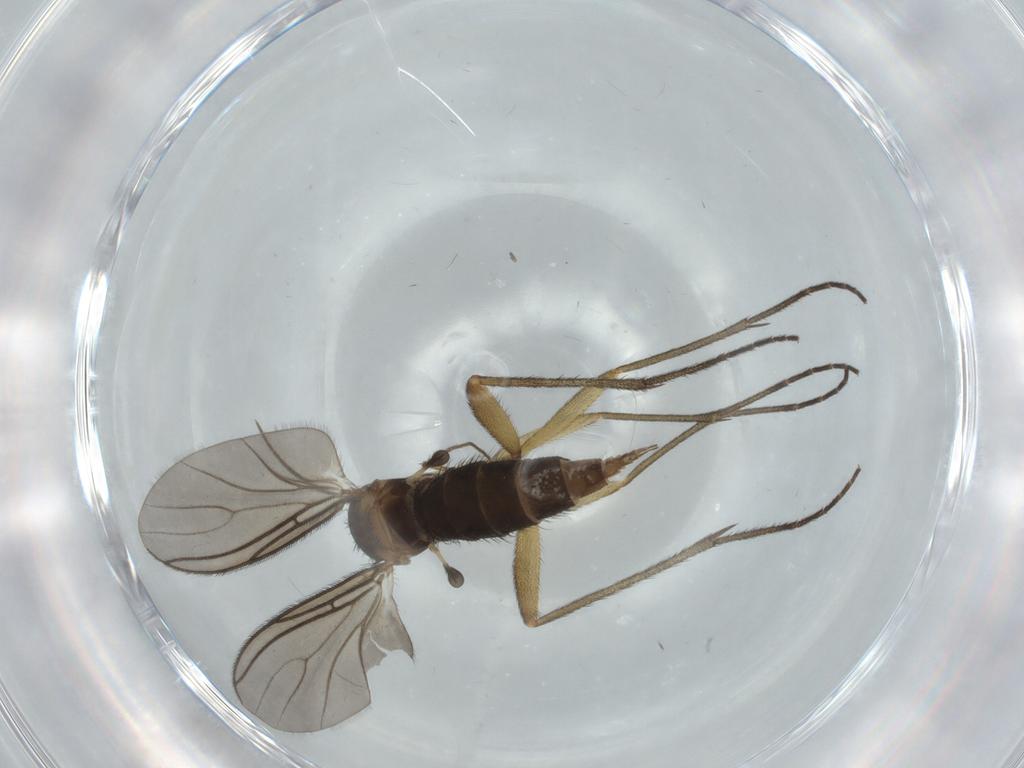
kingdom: Animalia
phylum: Arthropoda
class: Insecta
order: Diptera
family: Sciaridae
